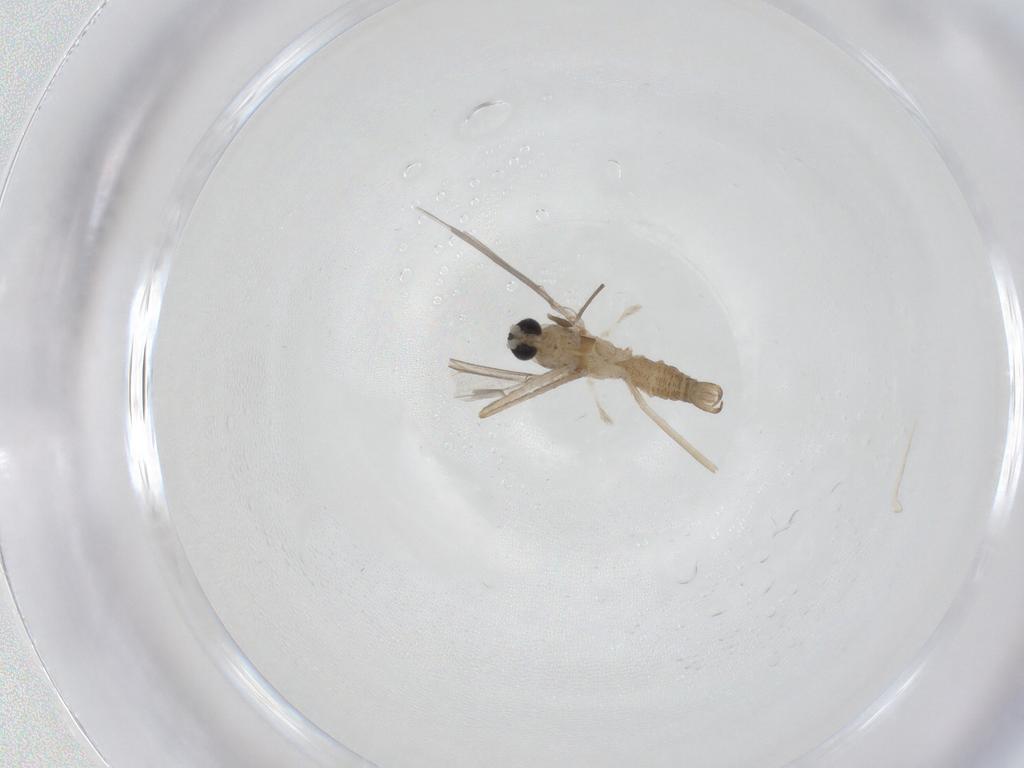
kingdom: Animalia
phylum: Arthropoda
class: Insecta
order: Diptera
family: Cecidomyiidae
